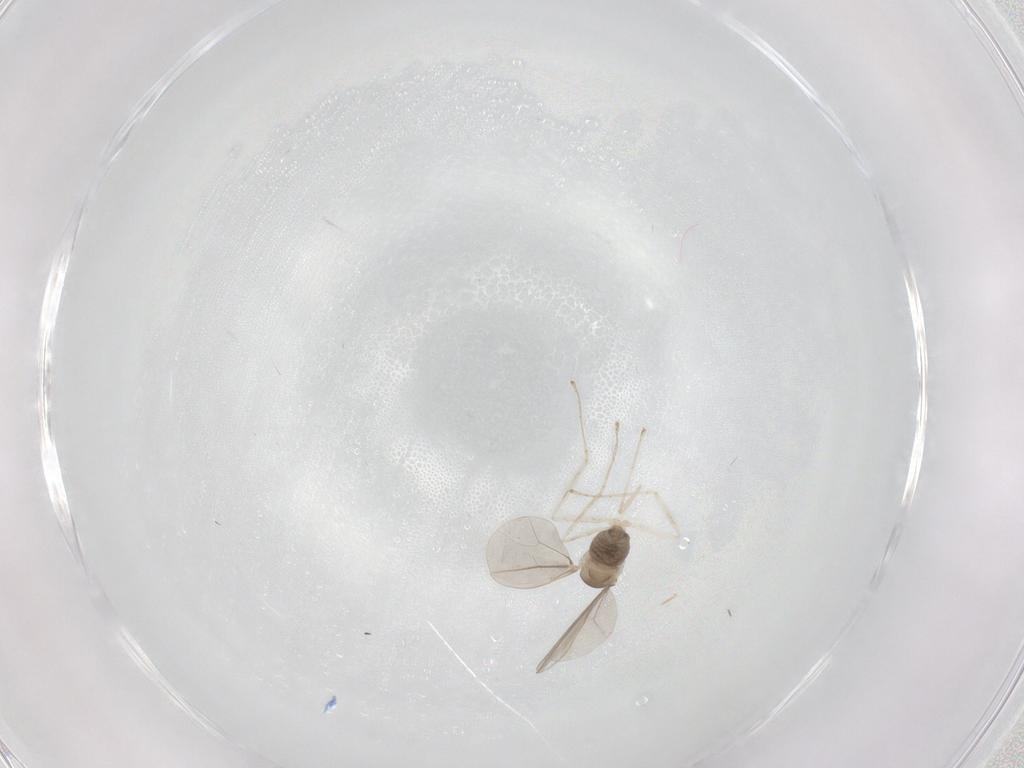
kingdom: Animalia
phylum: Arthropoda
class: Insecta
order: Diptera
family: Cecidomyiidae
